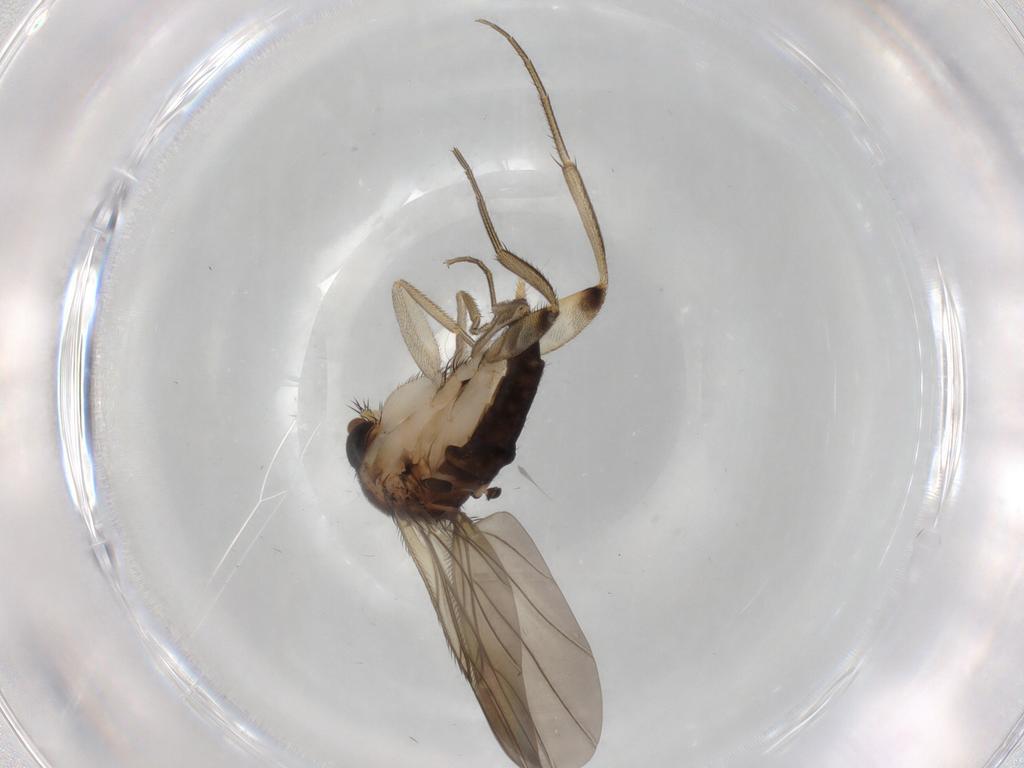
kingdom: Animalia
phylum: Arthropoda
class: Insecta
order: Diptera
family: Phoridae
